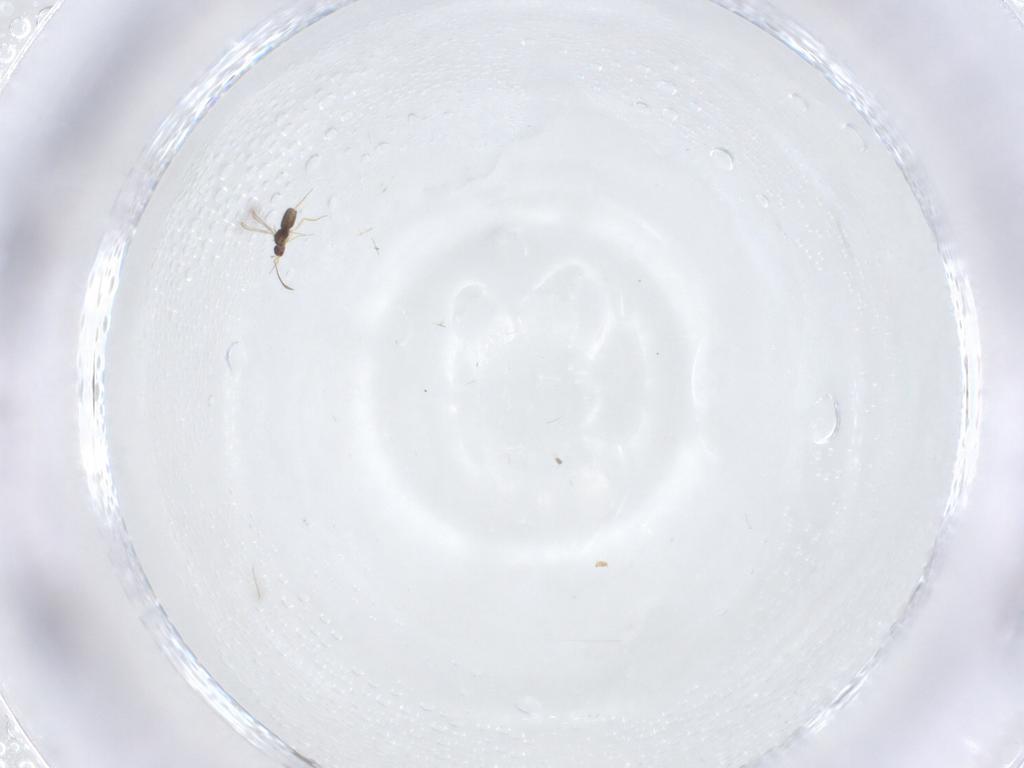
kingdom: Animalia
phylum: Arthropoda
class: Insecta
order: Hymenoptera
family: Mymaridae
